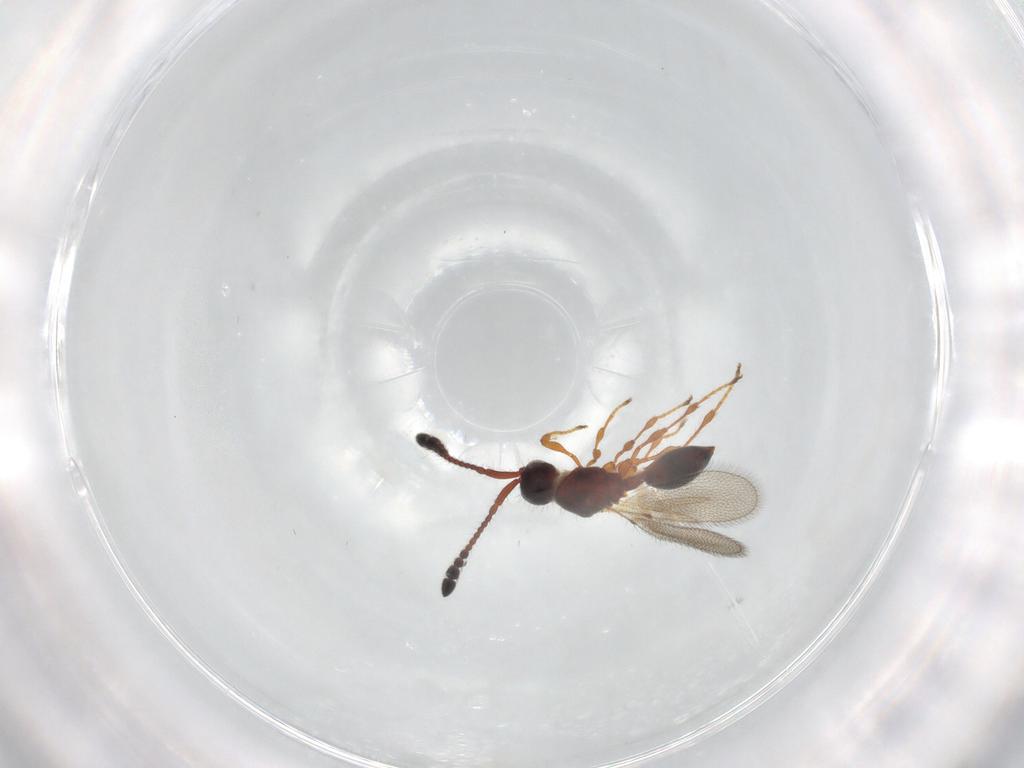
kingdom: Animalia
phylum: Arthropoda
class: Insecta
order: Hymenoptera
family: Diapriidae
